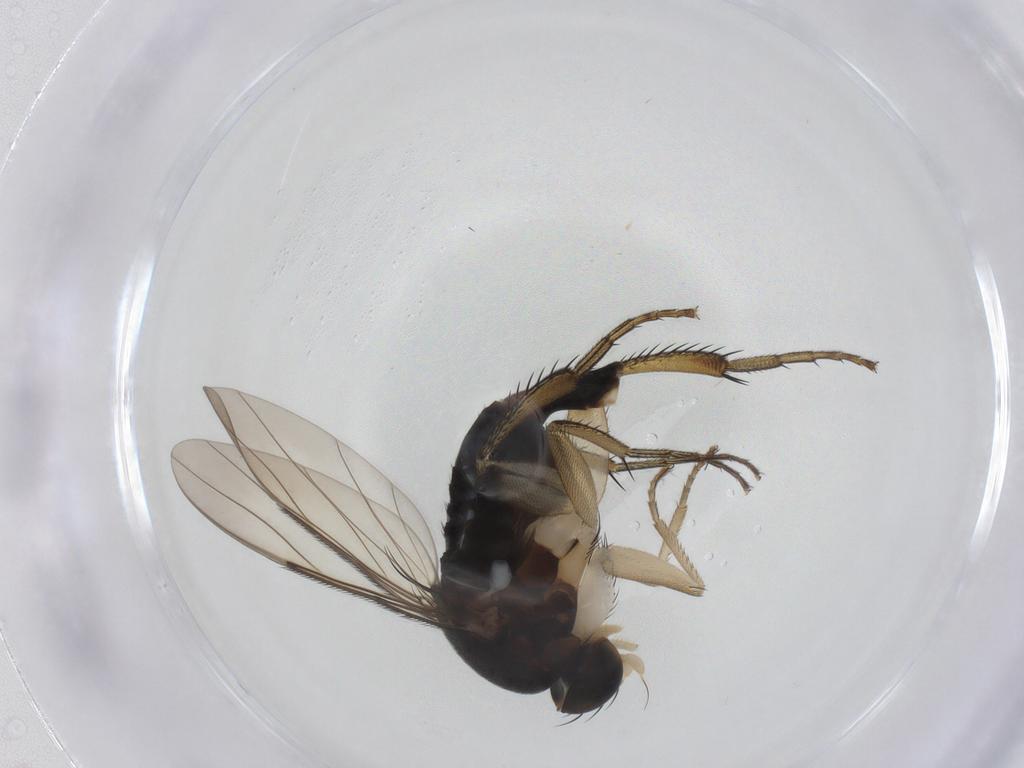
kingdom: Animalia
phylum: Arthropoda
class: Insecta
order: Diptera
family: Phoridae
